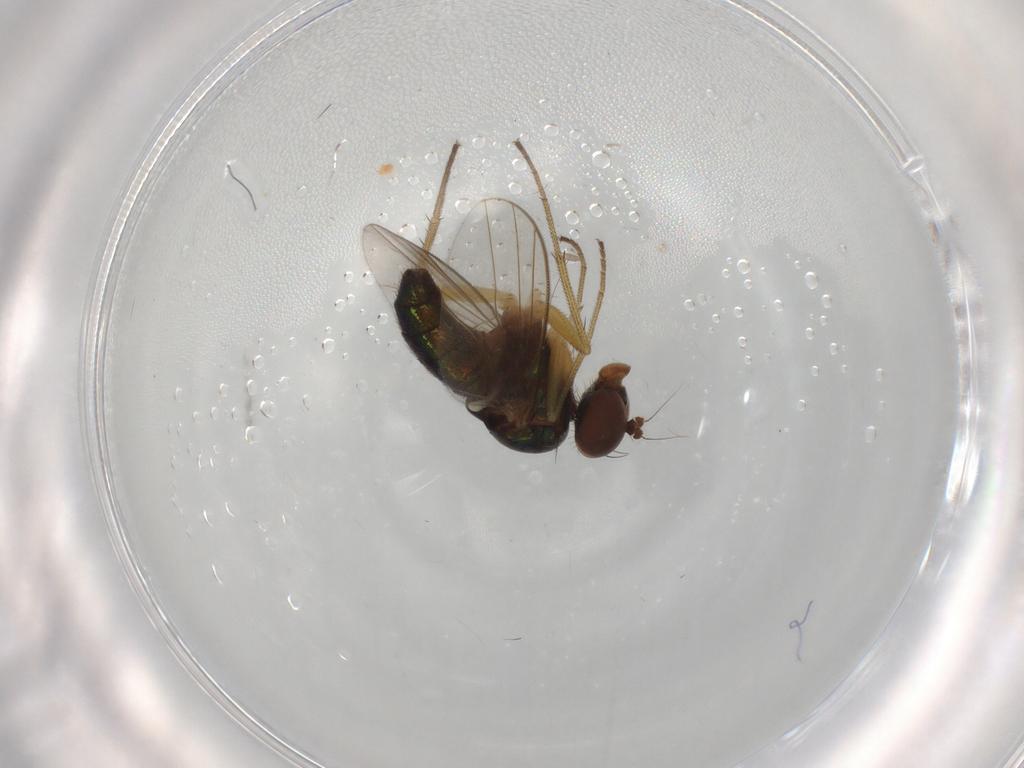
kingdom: Animalia
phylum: Arthropoda
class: Insecta
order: Diptera
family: Dolichopodidae
